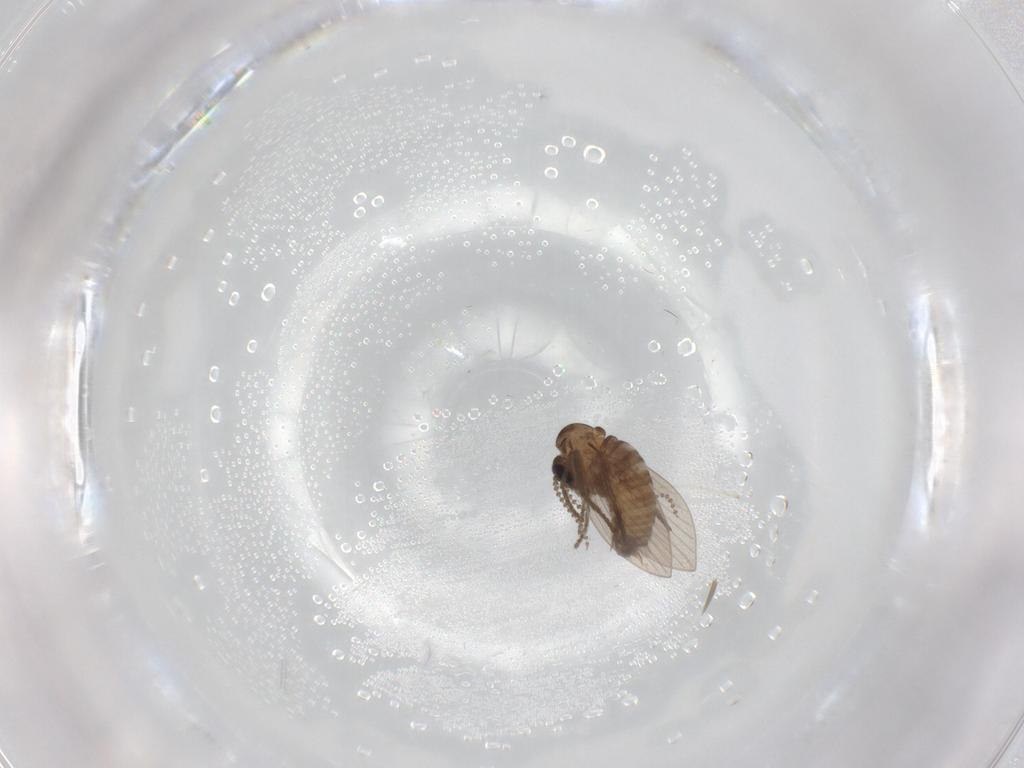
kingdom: Animalia
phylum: Arthropoda
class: Insecta
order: Diptera
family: Psychodidae
